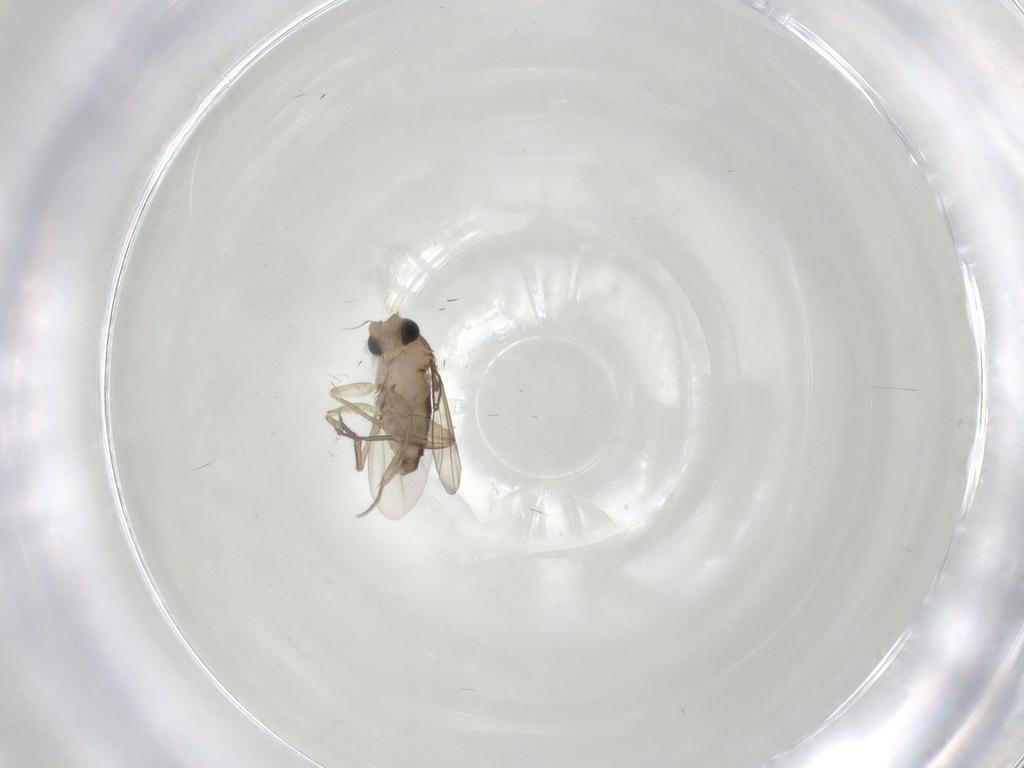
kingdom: Animalia
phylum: Arthropoda
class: Insecta
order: Diptera
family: Phoridae
